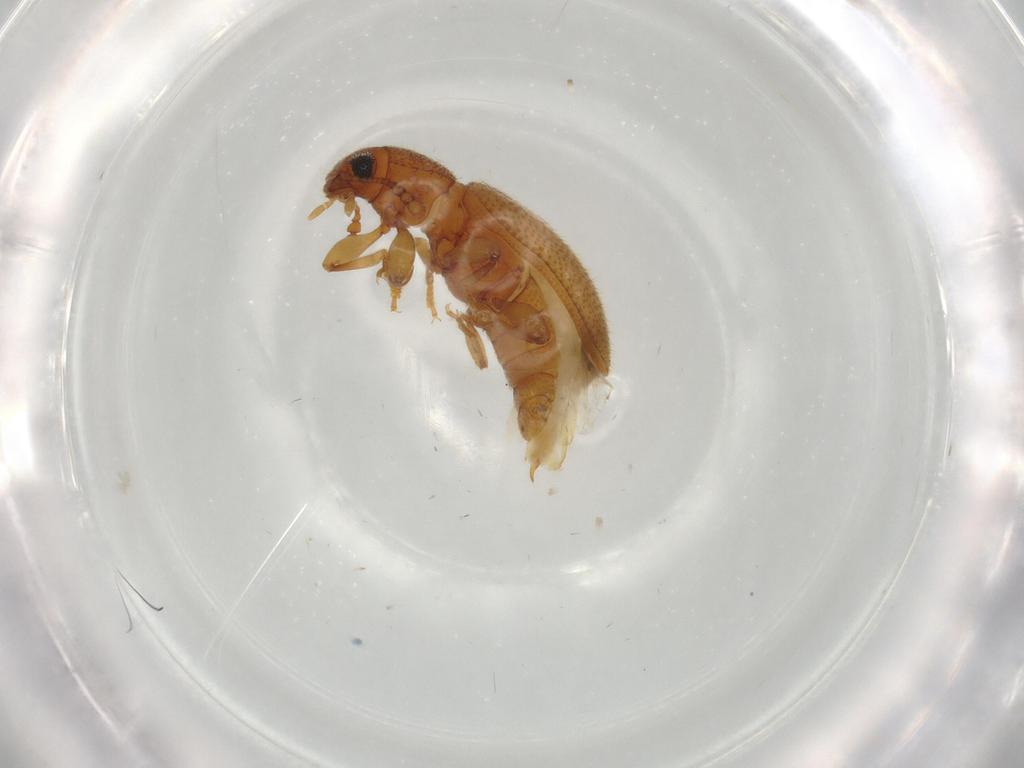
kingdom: Animalia
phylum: Arthropoda
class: Insecta
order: Coleoptera
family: Tenebrionidae
